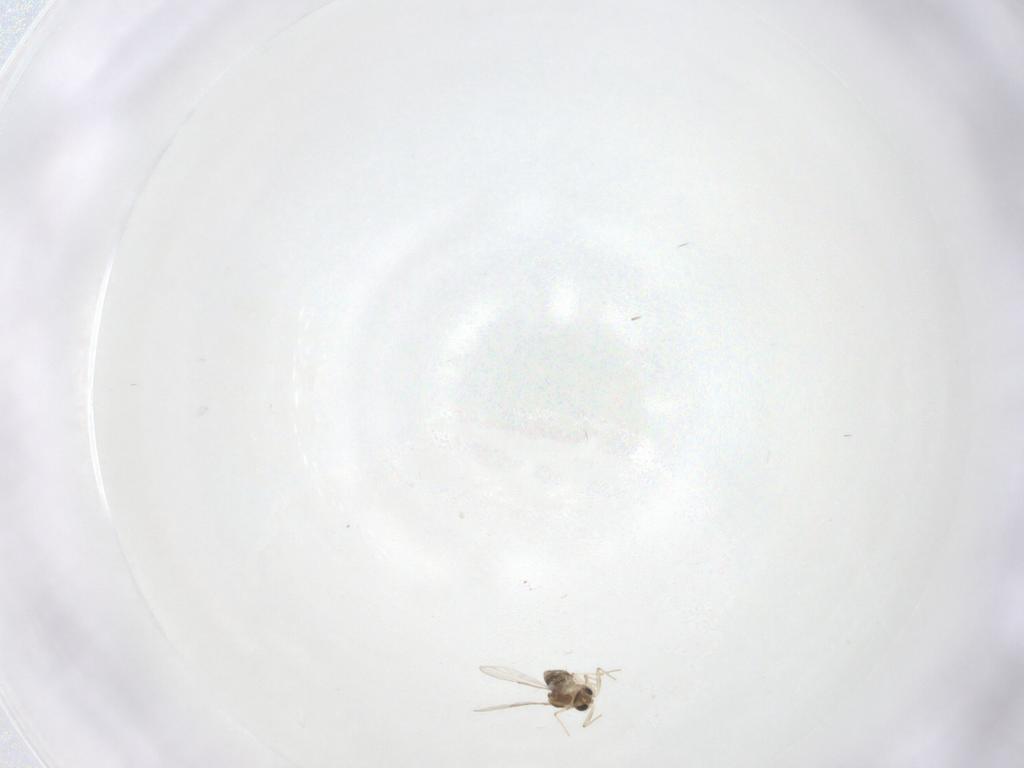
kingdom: Animalia
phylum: Arthropoda
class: Insecta
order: Diptera
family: Chironomidae
